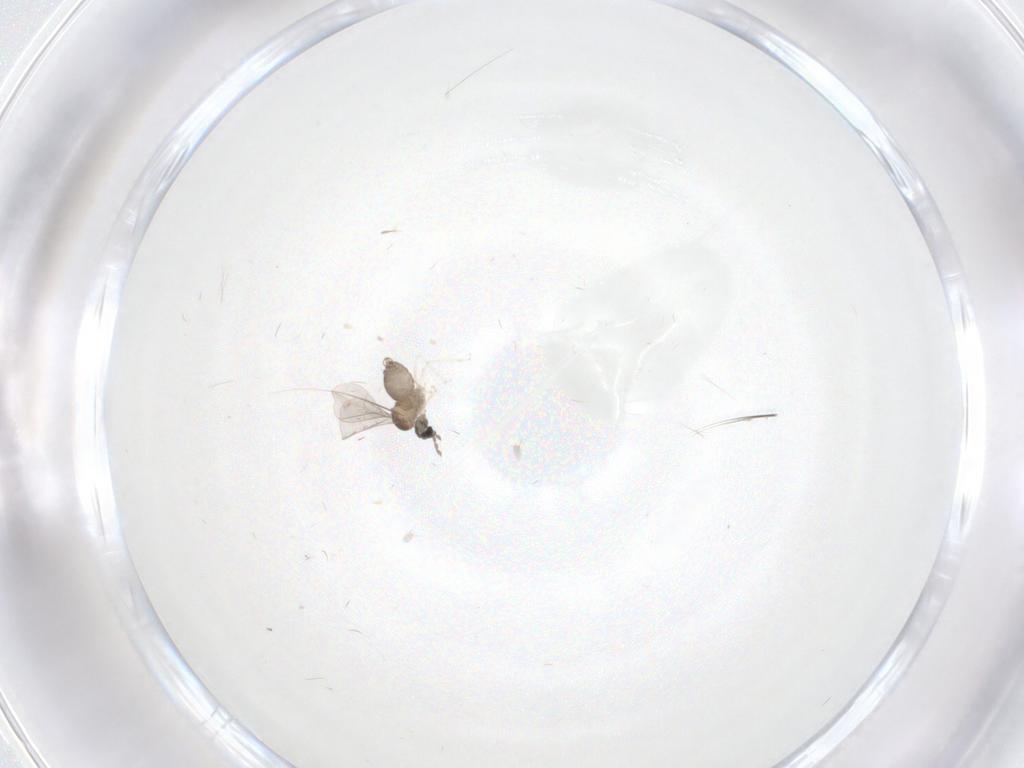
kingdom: Animalia
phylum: Arthropoda
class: Insecta
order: Diptera
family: Cecidomyiidae
